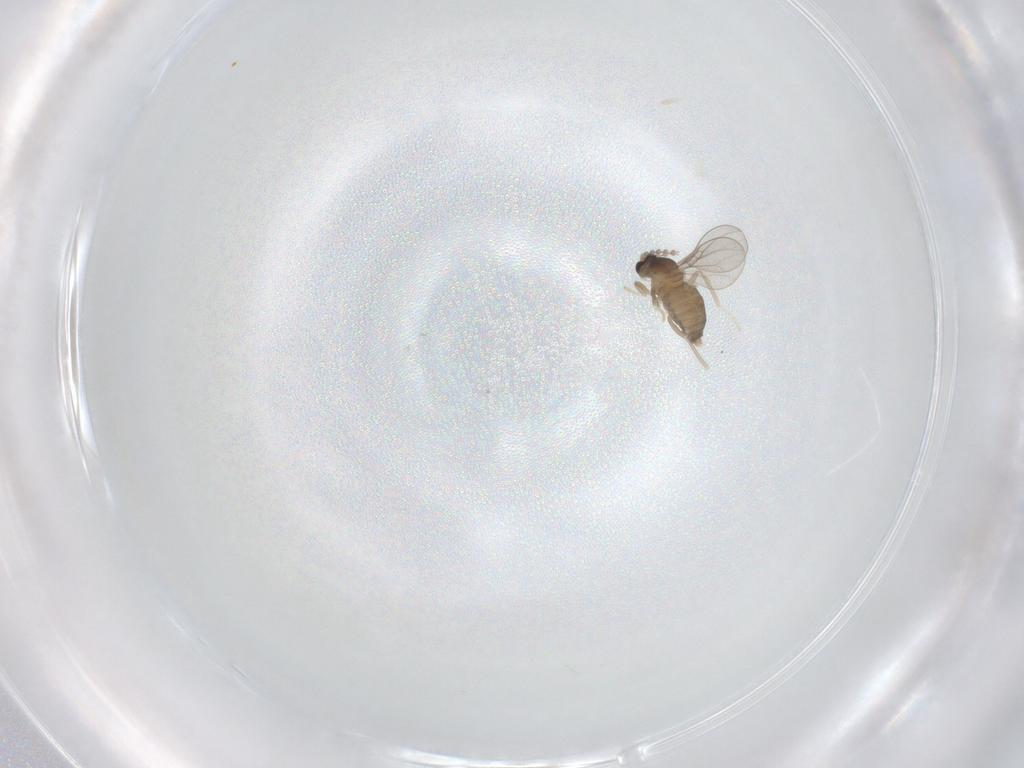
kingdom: Animalia
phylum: Arthropoda
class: Insecta
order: Diptera
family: Cecidomyiidae
